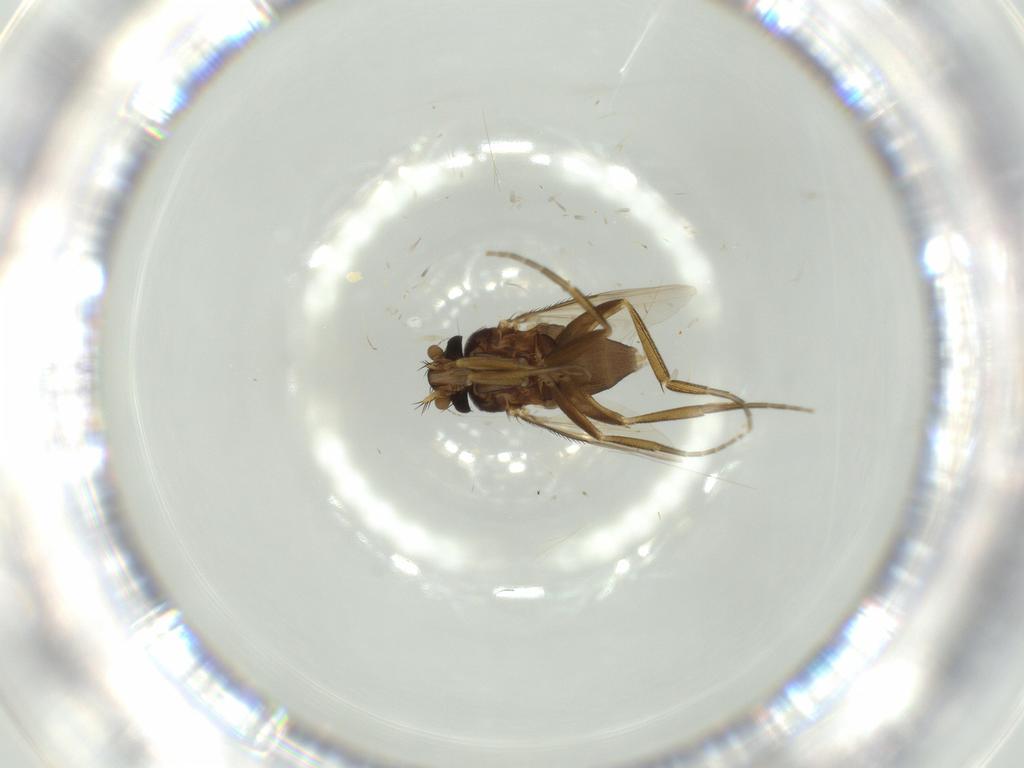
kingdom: Animalia
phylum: Arthropoda
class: Insecta
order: Diptera
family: Phoridae
